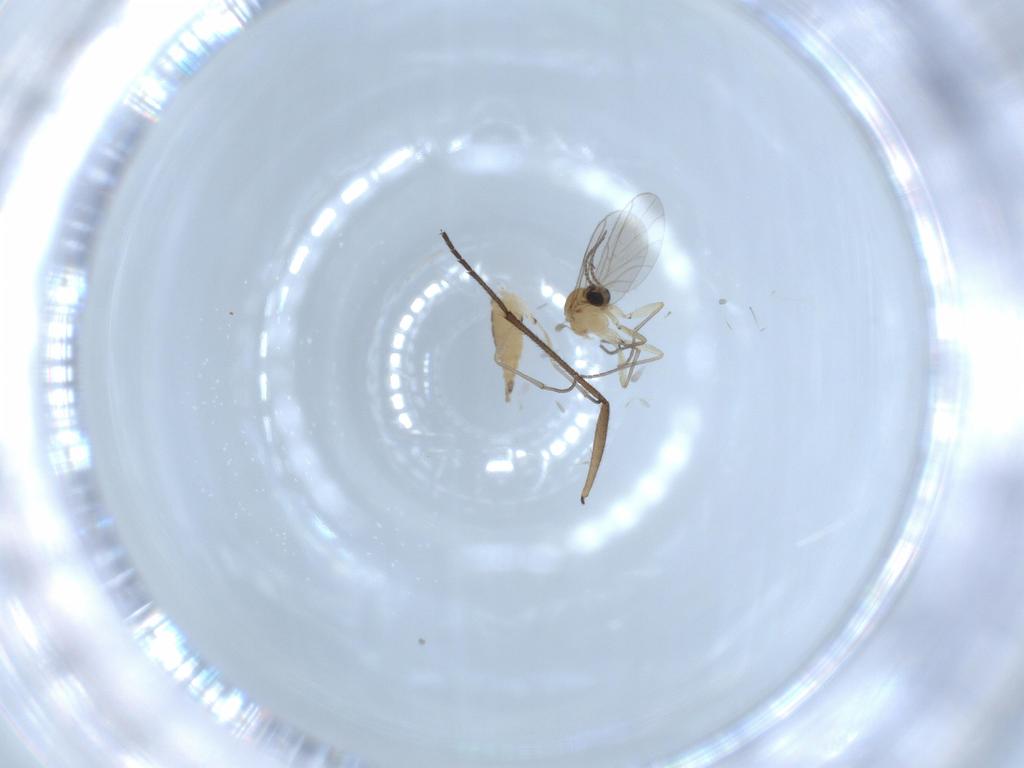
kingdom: Animalia
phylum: Arthropoda
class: Insecta
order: Diptera
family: Sciaridae
